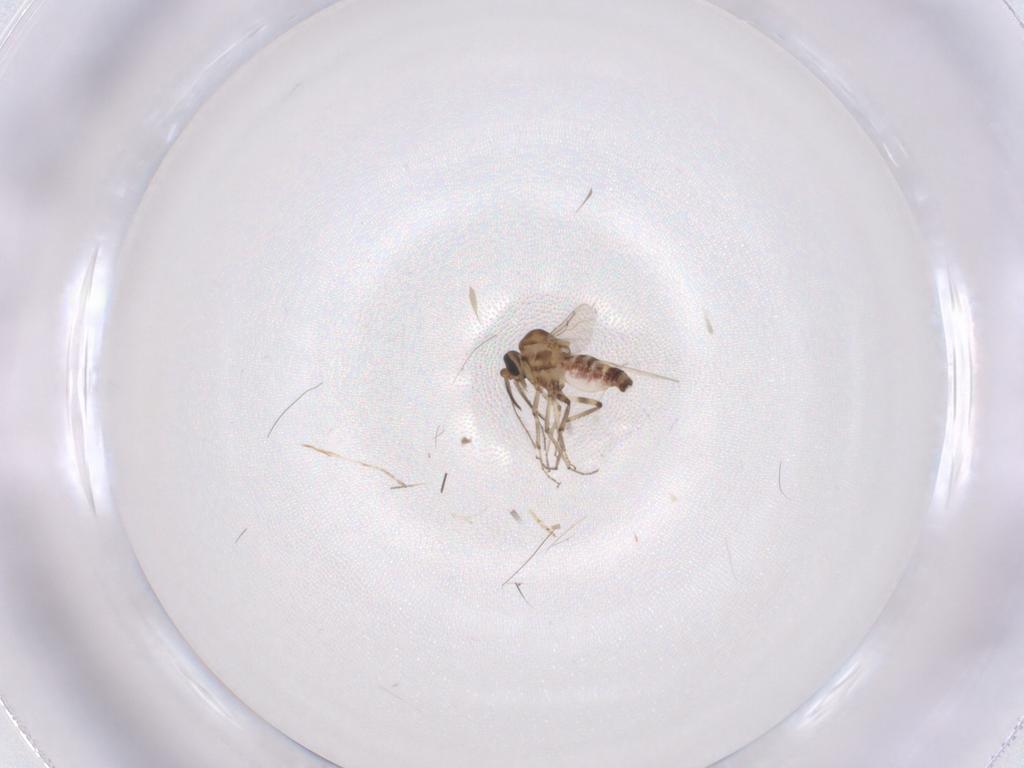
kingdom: Animalia
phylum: Arthropoda
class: Insecta
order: Diptera
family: Ceratopogonidae
